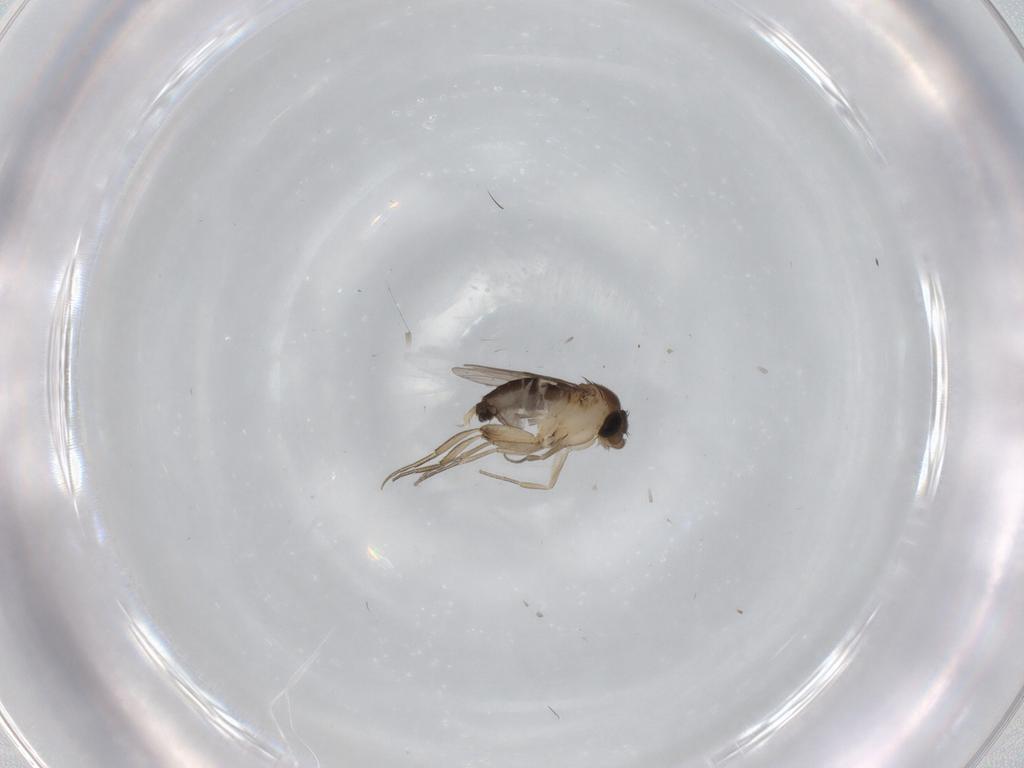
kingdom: Animalia
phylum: Arthropoda
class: Insecta
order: Diptera
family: Phoridae
